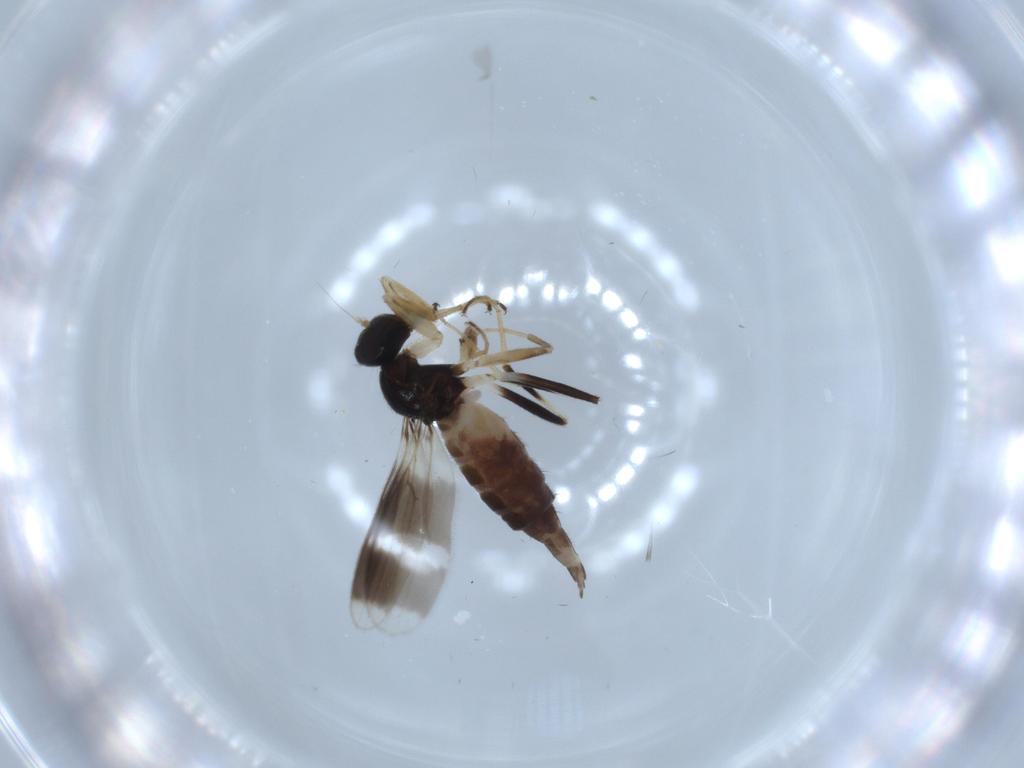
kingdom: Animalia
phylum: Arthropoda
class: Insecta
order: Diptera
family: Hybotidae
